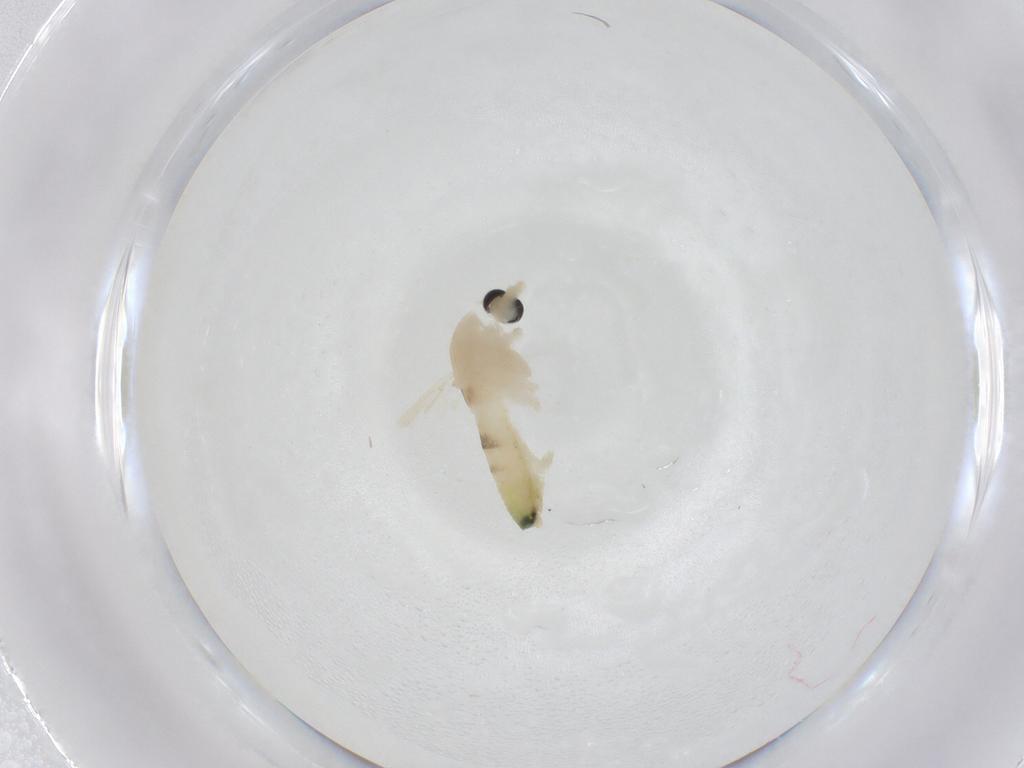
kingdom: Animalia
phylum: Arthropoda
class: Insecta
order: Diptera
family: Chironomidae
